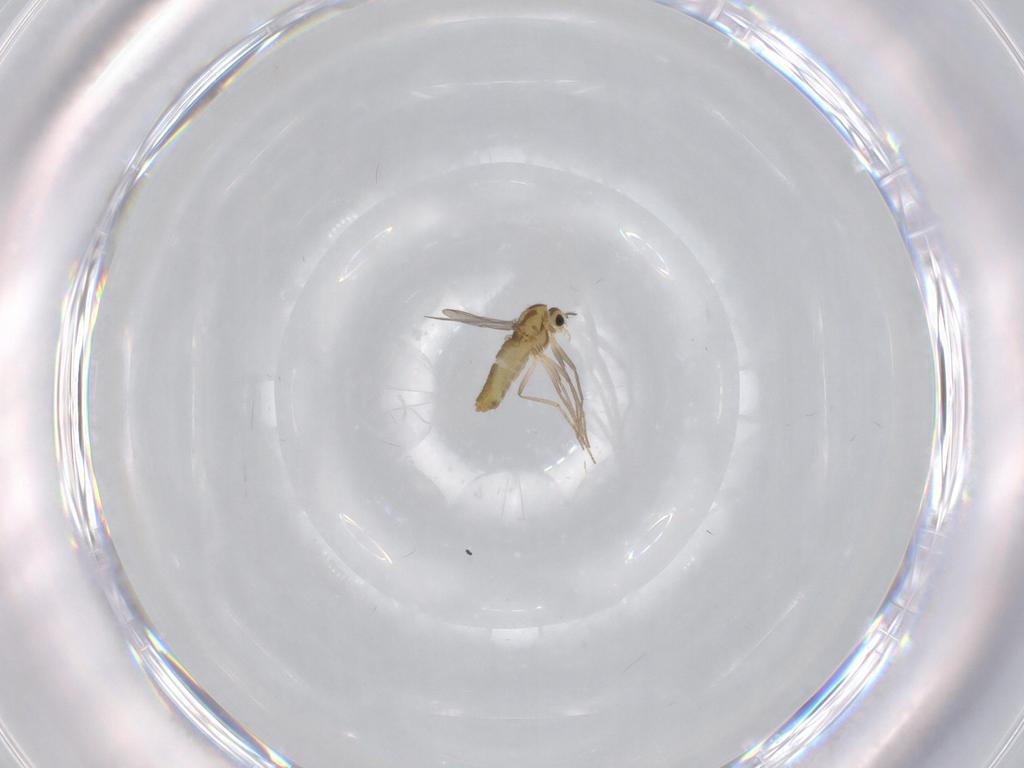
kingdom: Animalia
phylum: Arthropoda
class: Insecta
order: Diptera
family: Chironomidae
